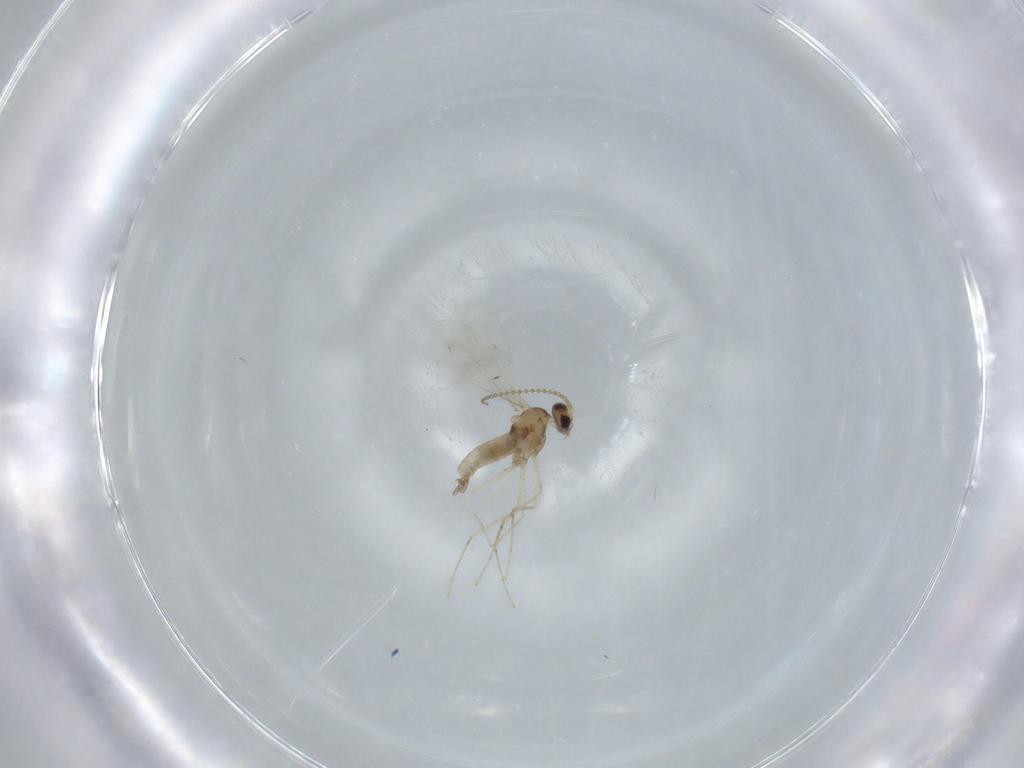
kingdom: Animalia
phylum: Arthropoda
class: Insecta
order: Diptera
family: Cecidomyiidae
